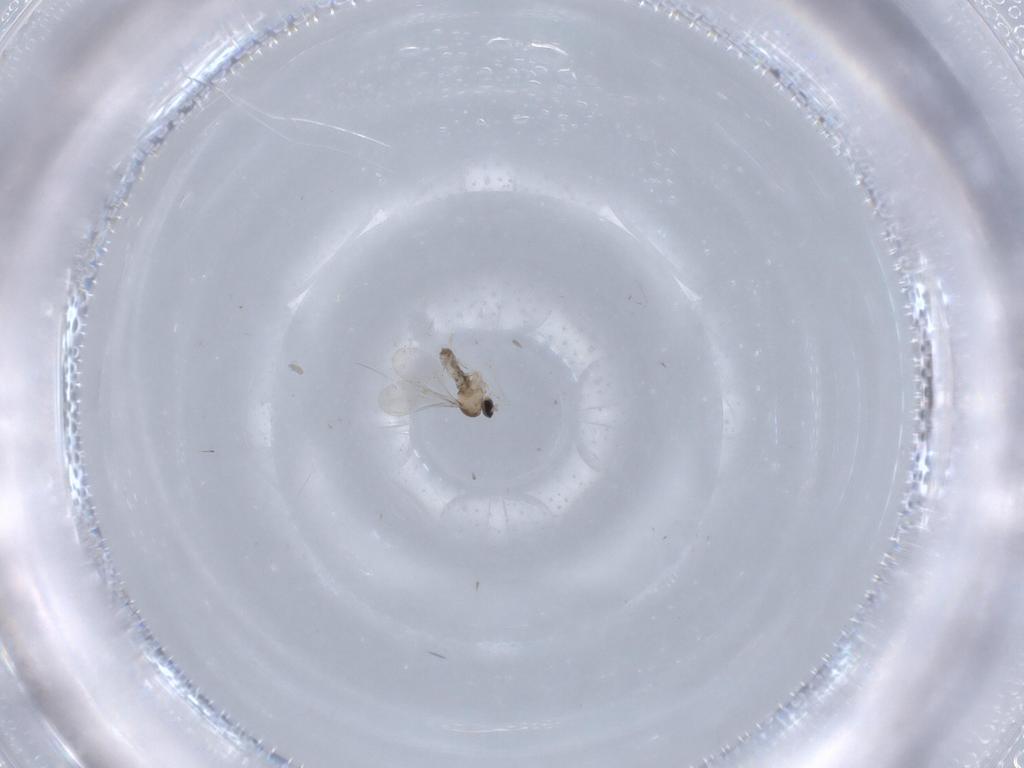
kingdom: Animalia
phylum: Arthropoda
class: Insecta
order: Diptera
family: Chironomidae
